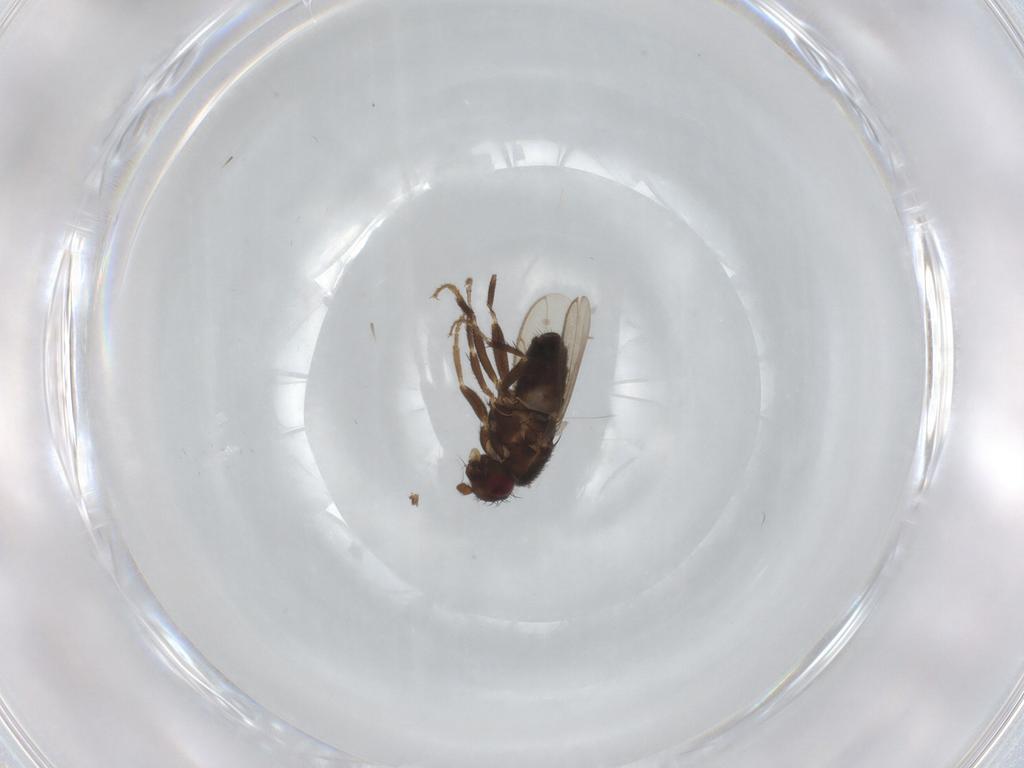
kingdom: Animalia
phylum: Arthropoda
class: Insecta
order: Diptera
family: Sphaeroceridae
